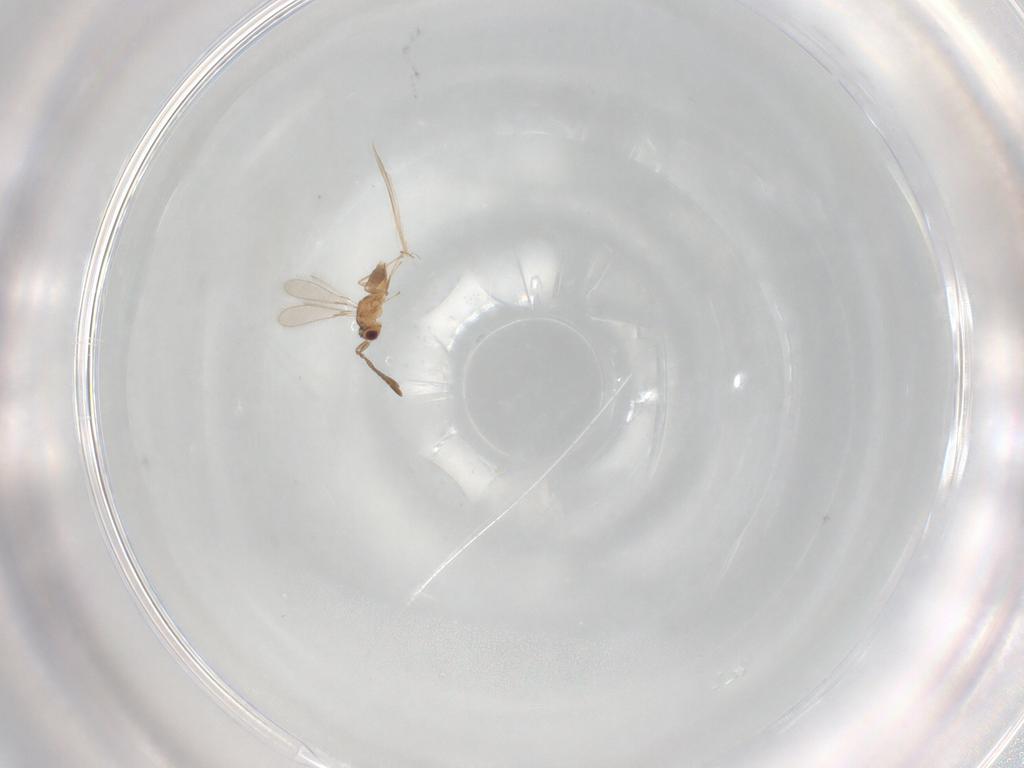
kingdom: Animalia
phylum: Arthropoda
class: Insecta
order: Hymenoptera
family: Mymaridae
